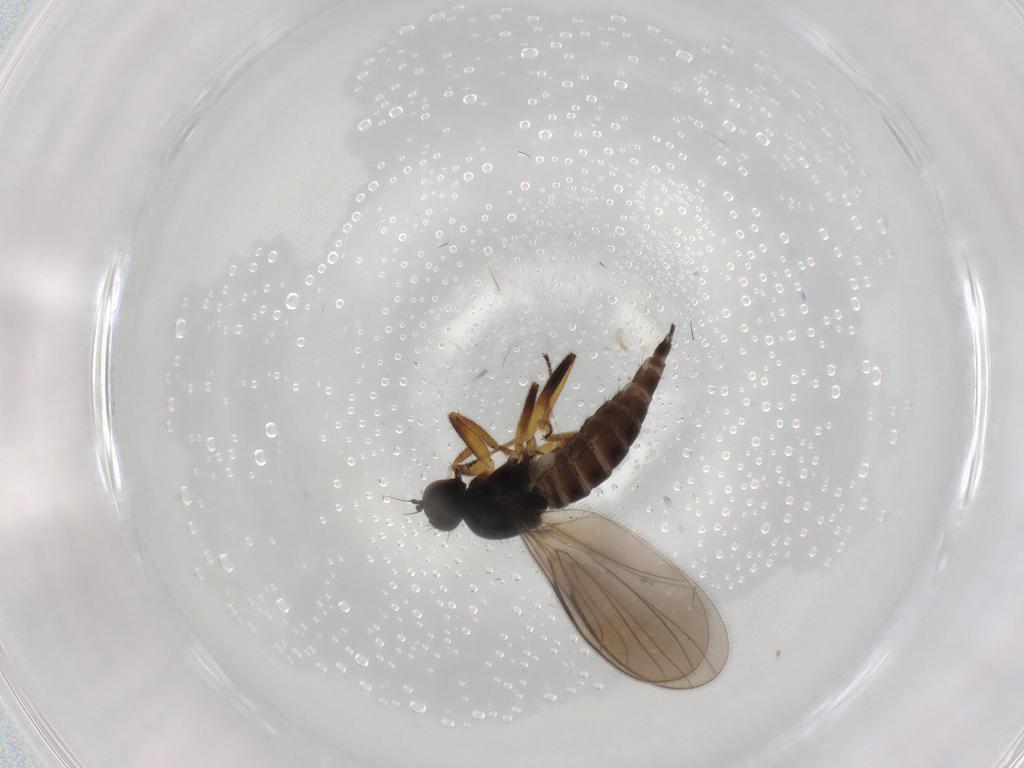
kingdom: Animalia
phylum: Arthropoda
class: Insecta
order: Diptera
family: Hybotidae
